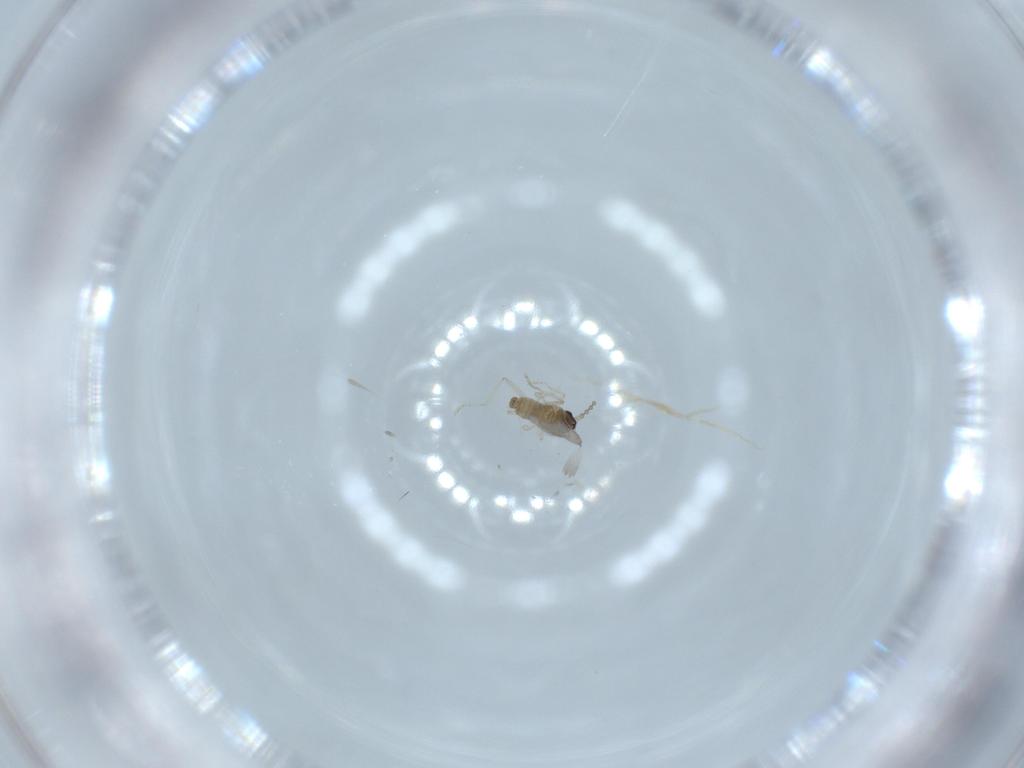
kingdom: Animalia
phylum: Arthropoda
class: Insecta
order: Diptera
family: Cecidomyiidae
